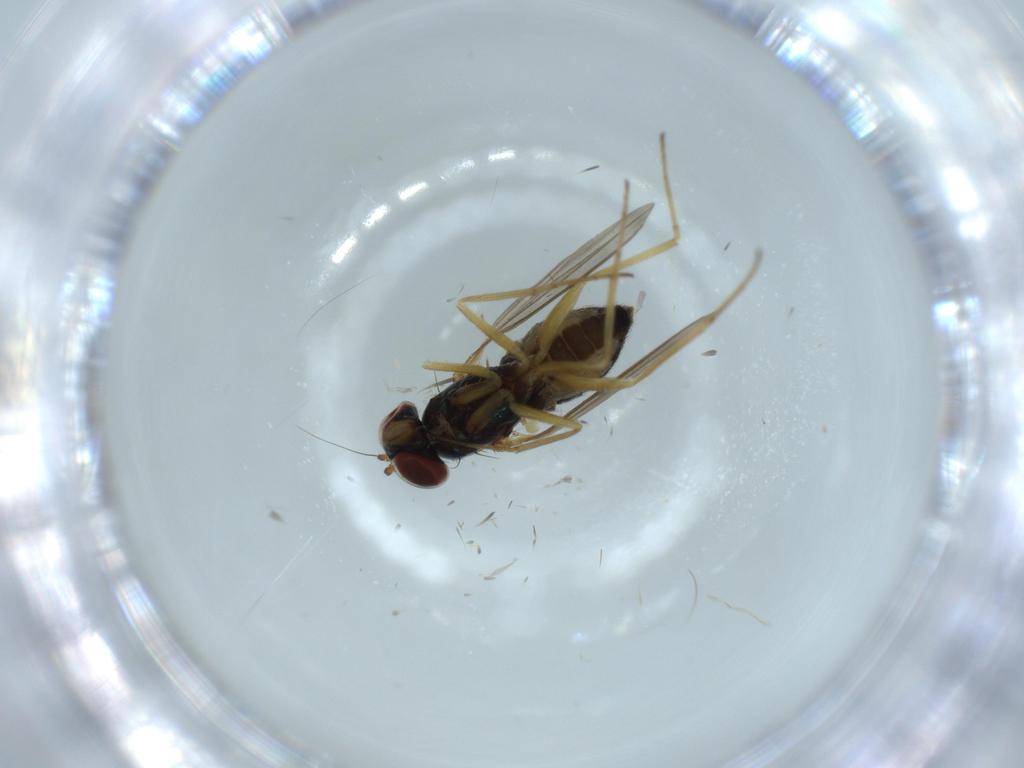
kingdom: Animalia
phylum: Arthropoda
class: Insecta
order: Diptera
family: Dolichopodidae
